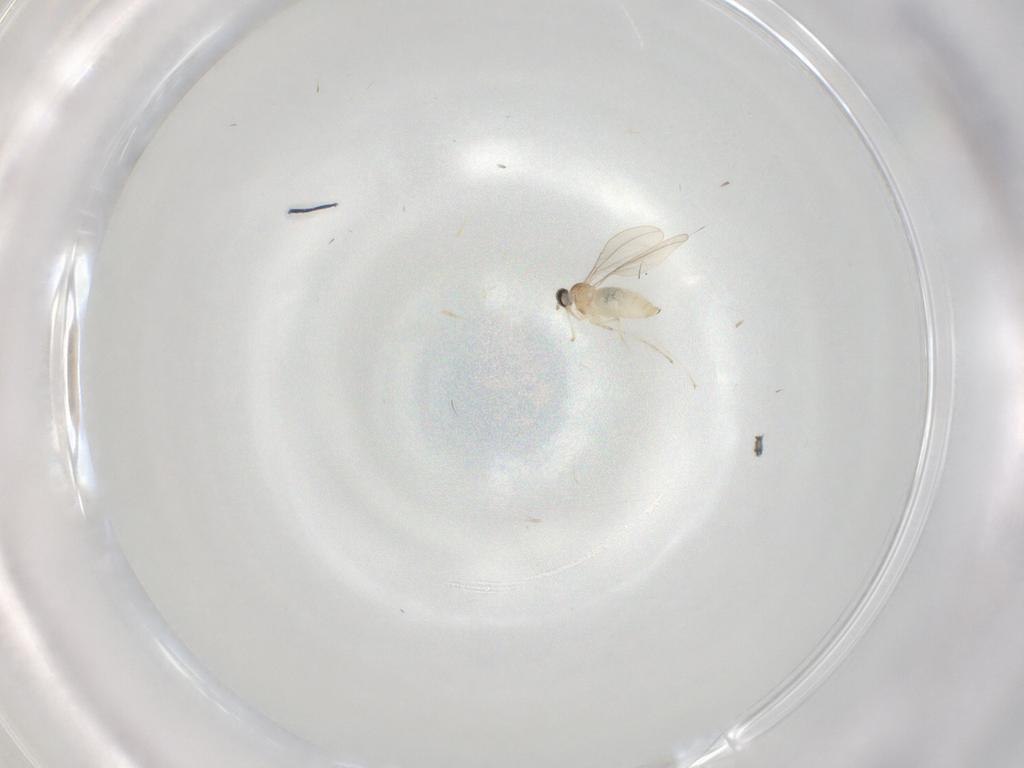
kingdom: Animalia
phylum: Arthropoda
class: Insecta
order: Diptera
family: Cecidomyiidae
